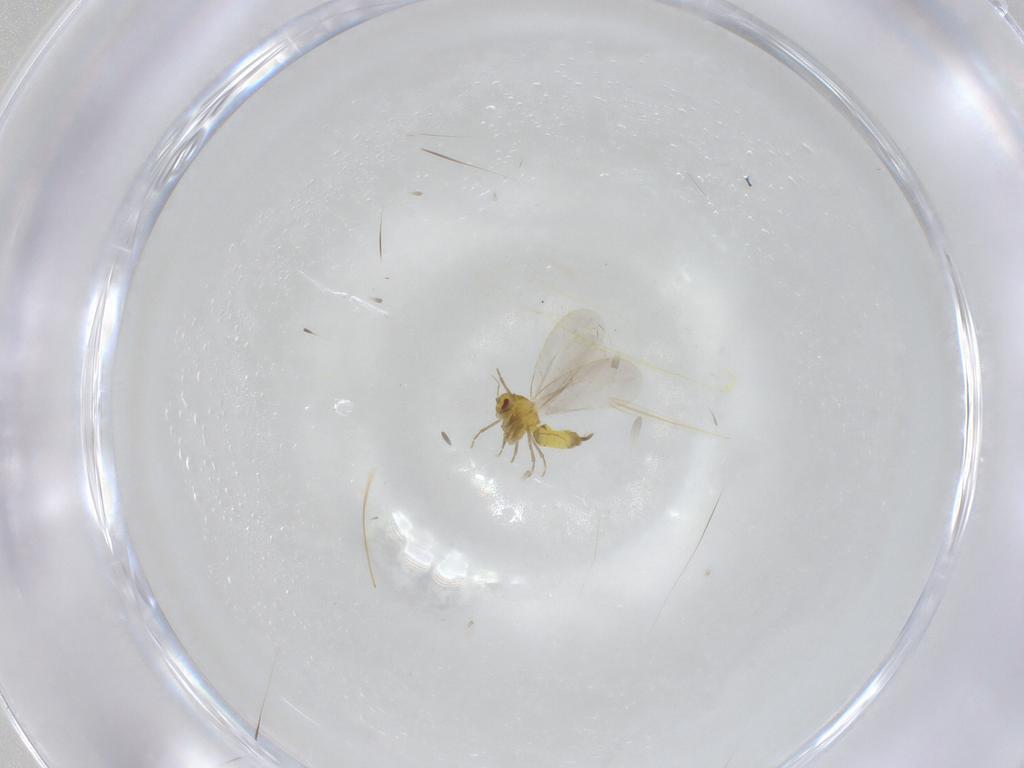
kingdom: Animalia
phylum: Arthropoda
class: Insecta
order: Hemiptera
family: Aleyrodidae
